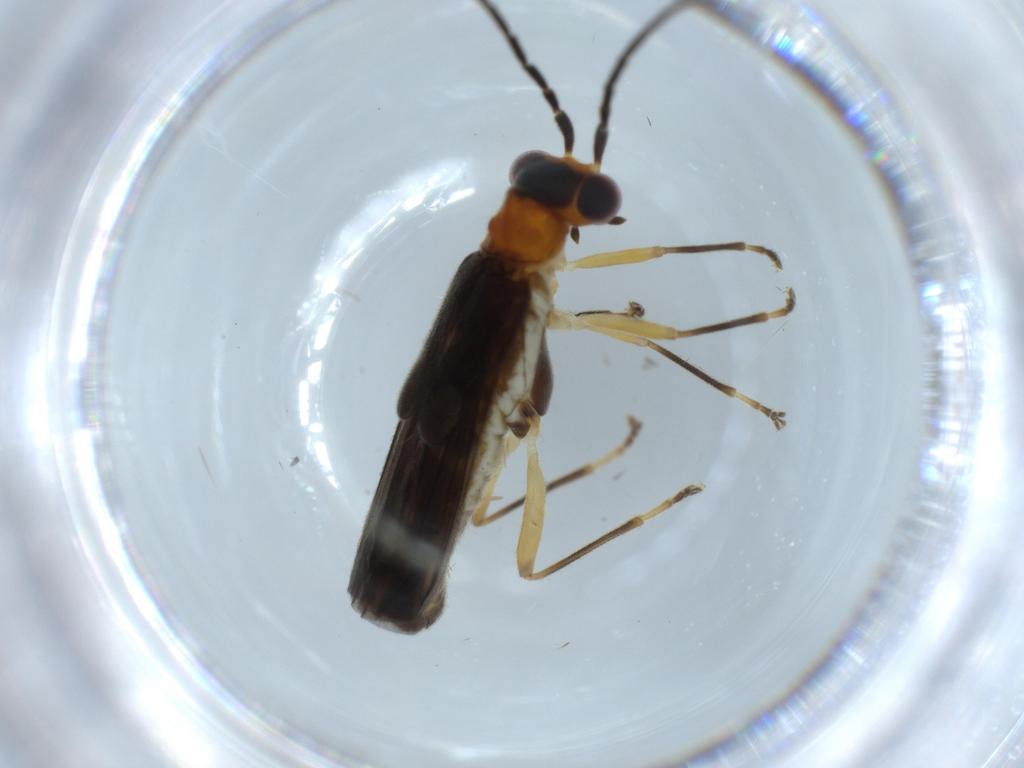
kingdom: Animalia
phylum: Arthropoda
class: Insecta
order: Coleoptera
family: Cantharidae
